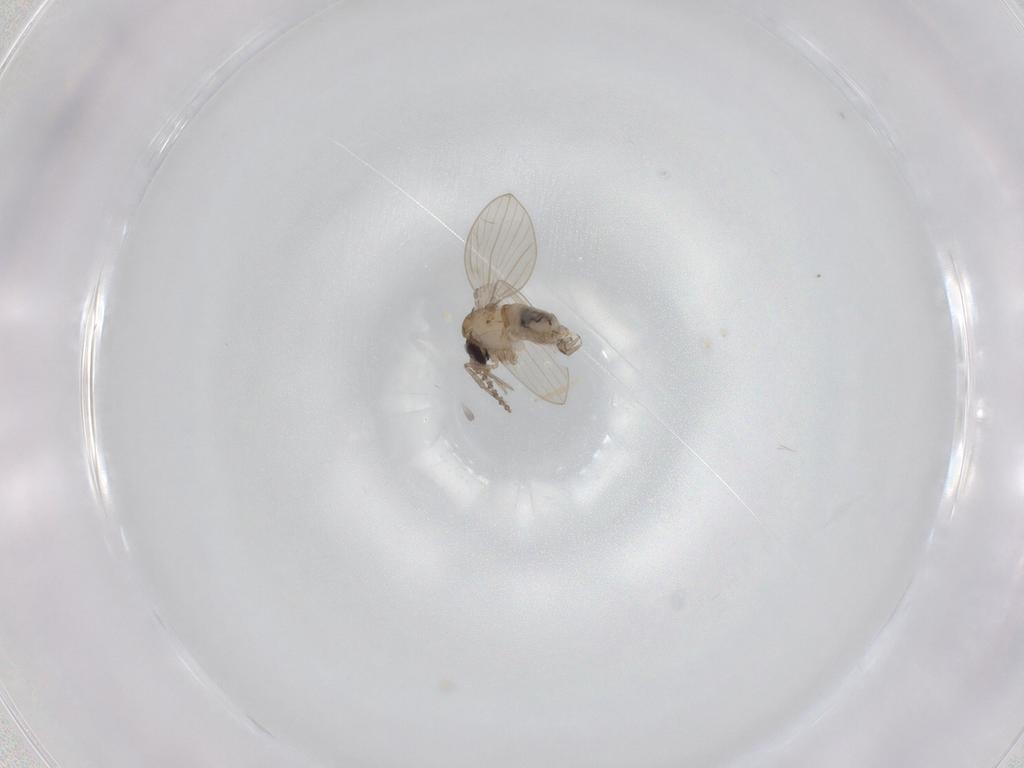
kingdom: Animalia
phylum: Arthropoda
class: Insecta
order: Diptera
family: Psychodidae
